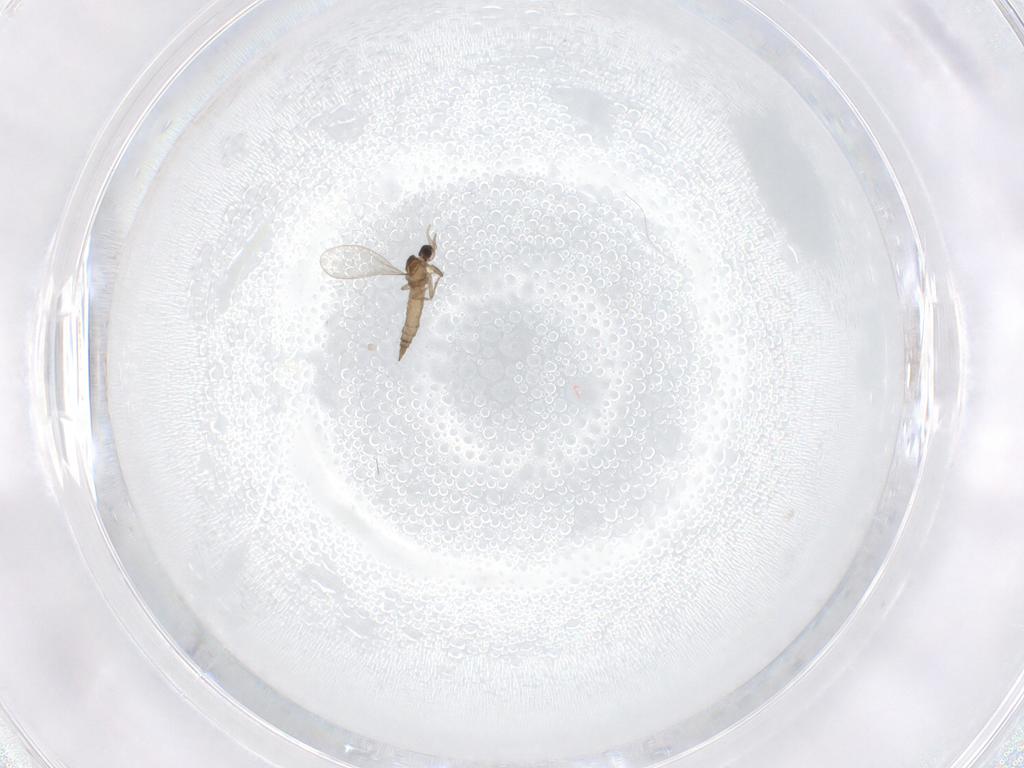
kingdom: Animalia
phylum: Arthropoda
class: Insecta
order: Diptera
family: Cecidomyiidae
